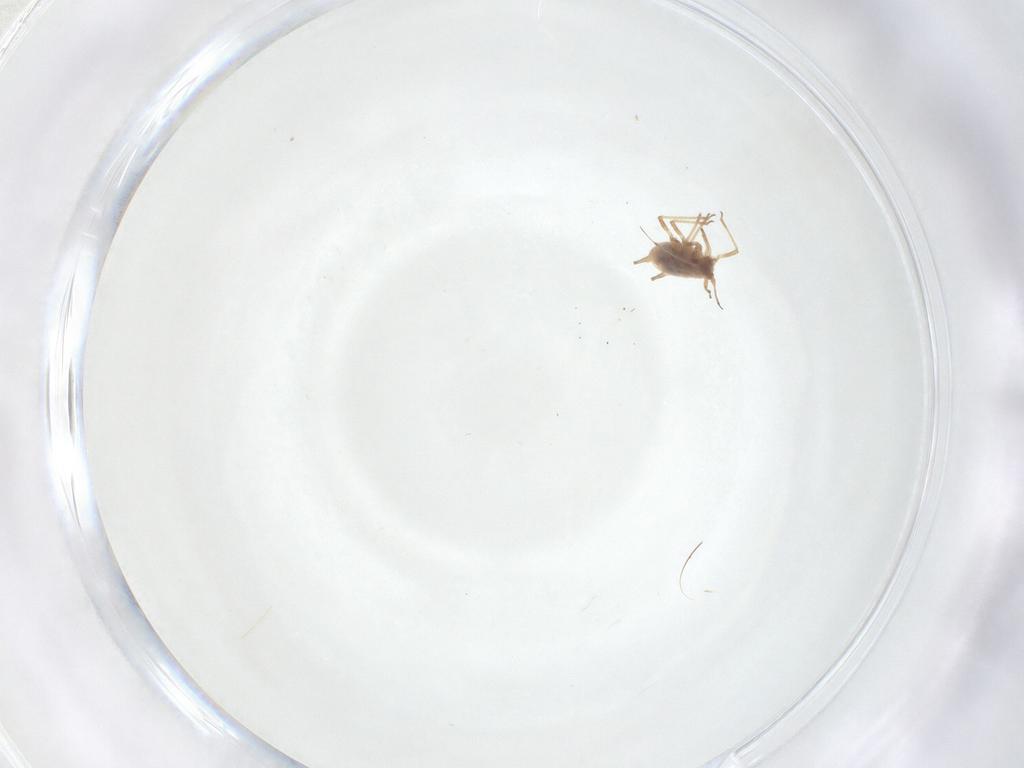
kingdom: Animalia
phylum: Arthropoda
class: Insecta
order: Hemiptera
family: Aphididae
